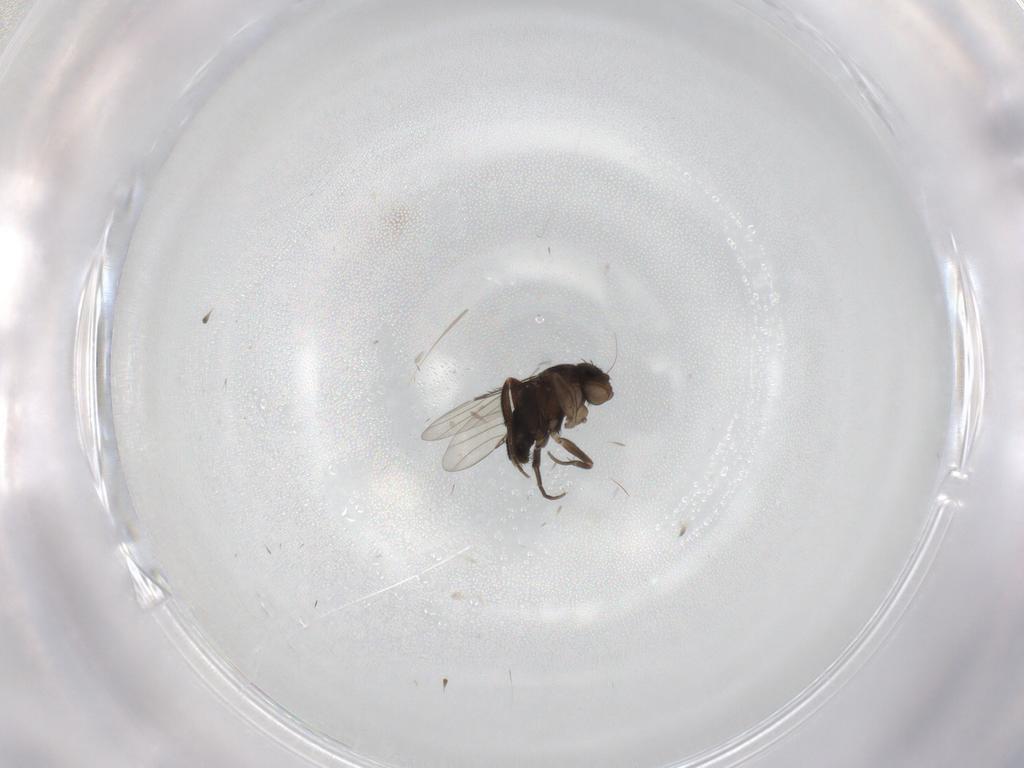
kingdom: Animalia
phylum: Arthropoda
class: Insecta
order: Diptera
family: Phoridae
